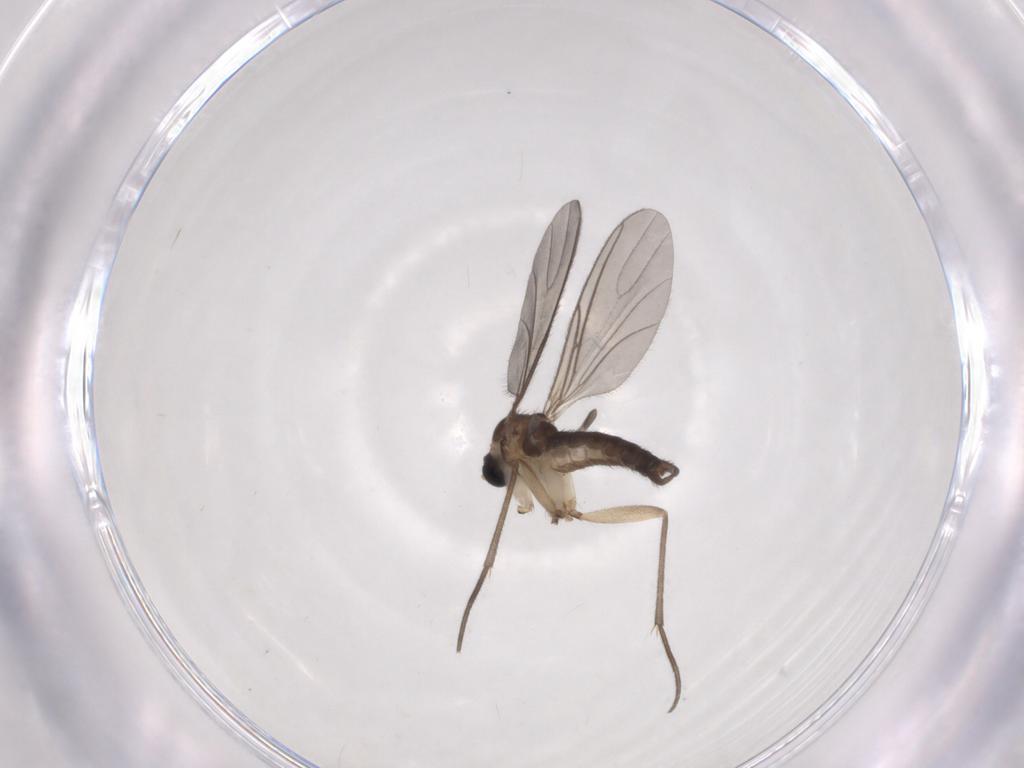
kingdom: Animalia
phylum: Arthropoda
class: Insecta
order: Diptera
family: Sciaridae
